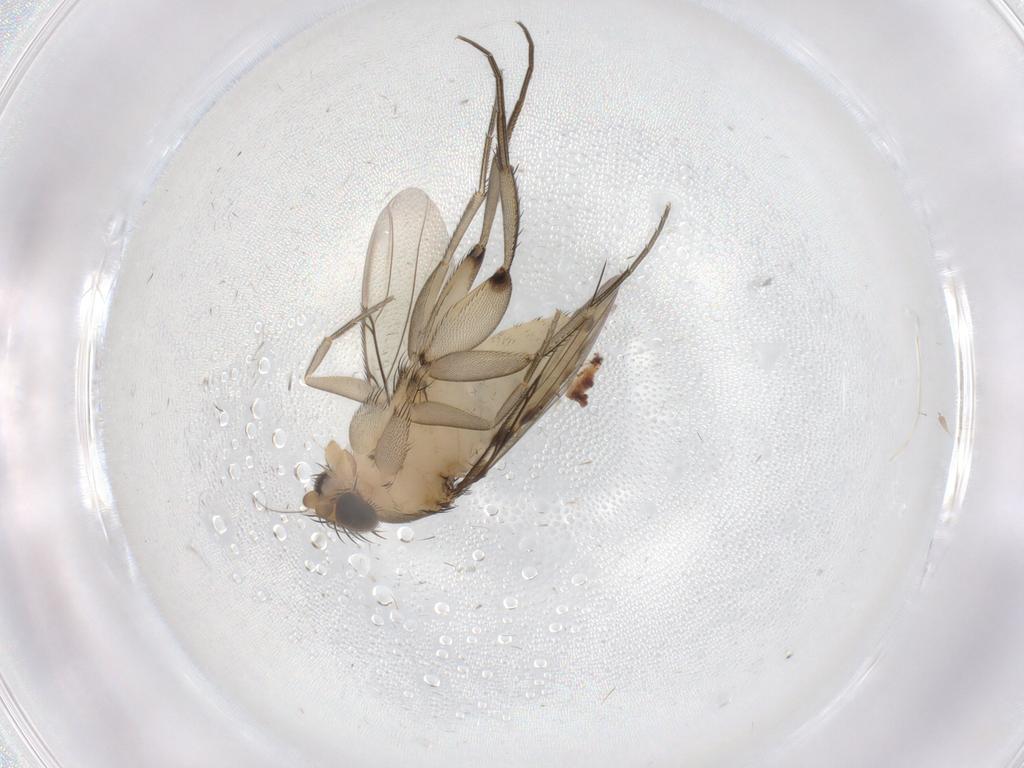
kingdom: Animalia
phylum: Arthropoda
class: Insecta
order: Diptera
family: Phoridae
